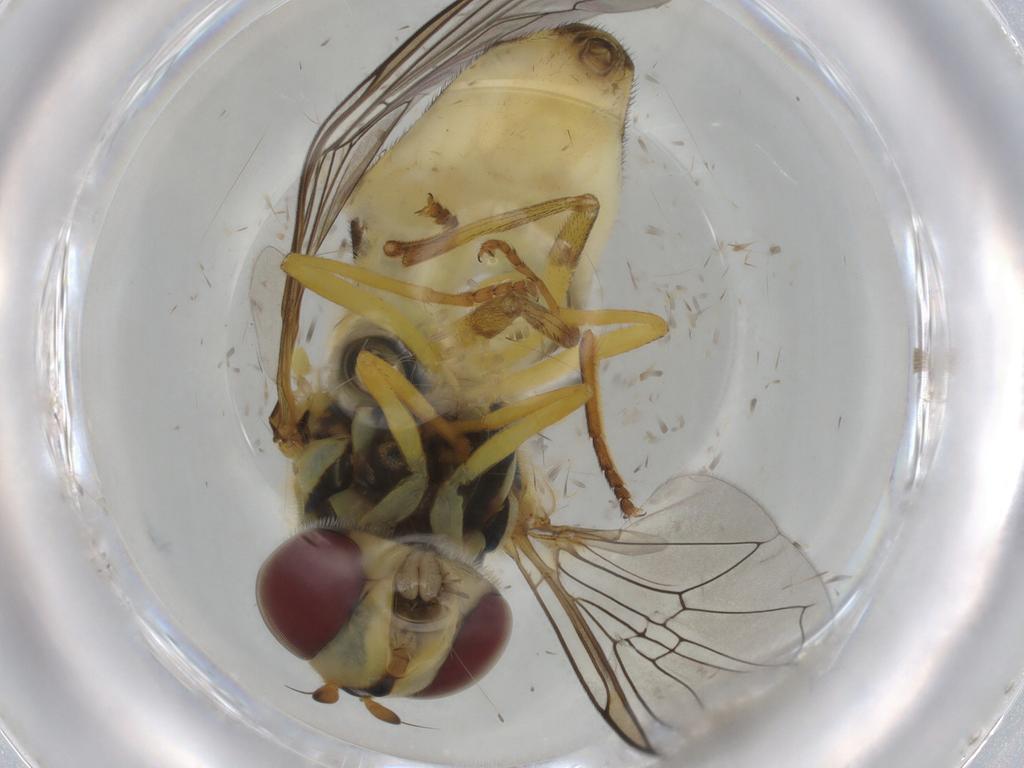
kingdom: Animalia
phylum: Arthropoda
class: Insecta
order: Diptera
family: Syrphidae
